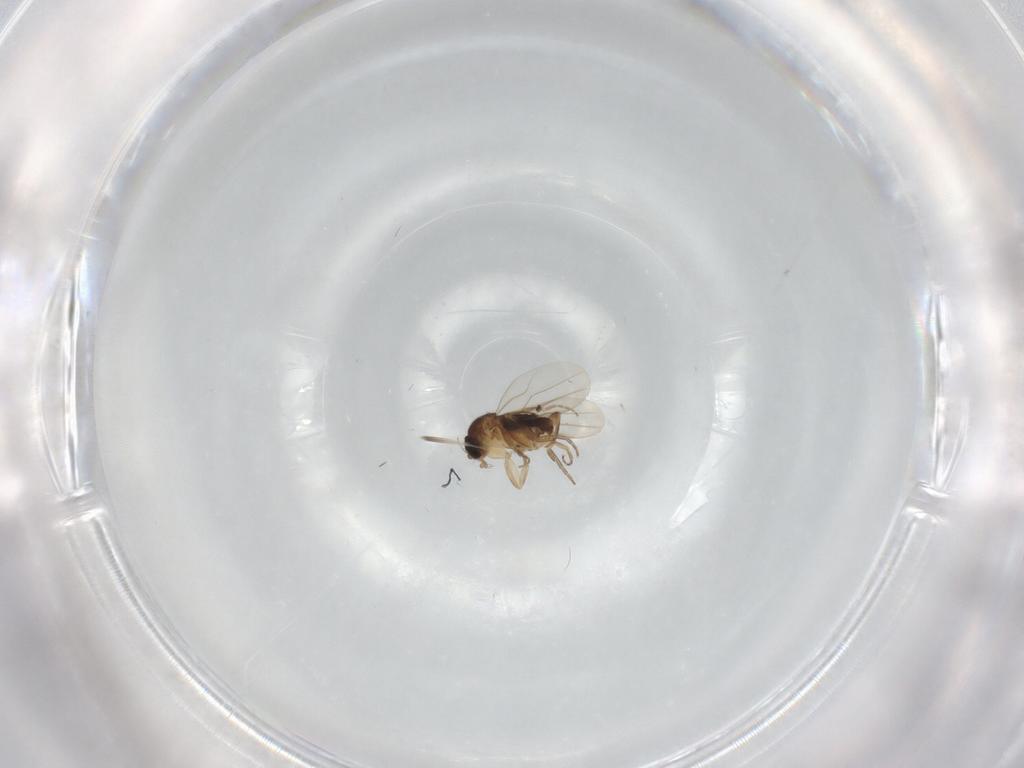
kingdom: Animalia
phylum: Arthropoda
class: Insecta
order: Diptera
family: Phoridae
